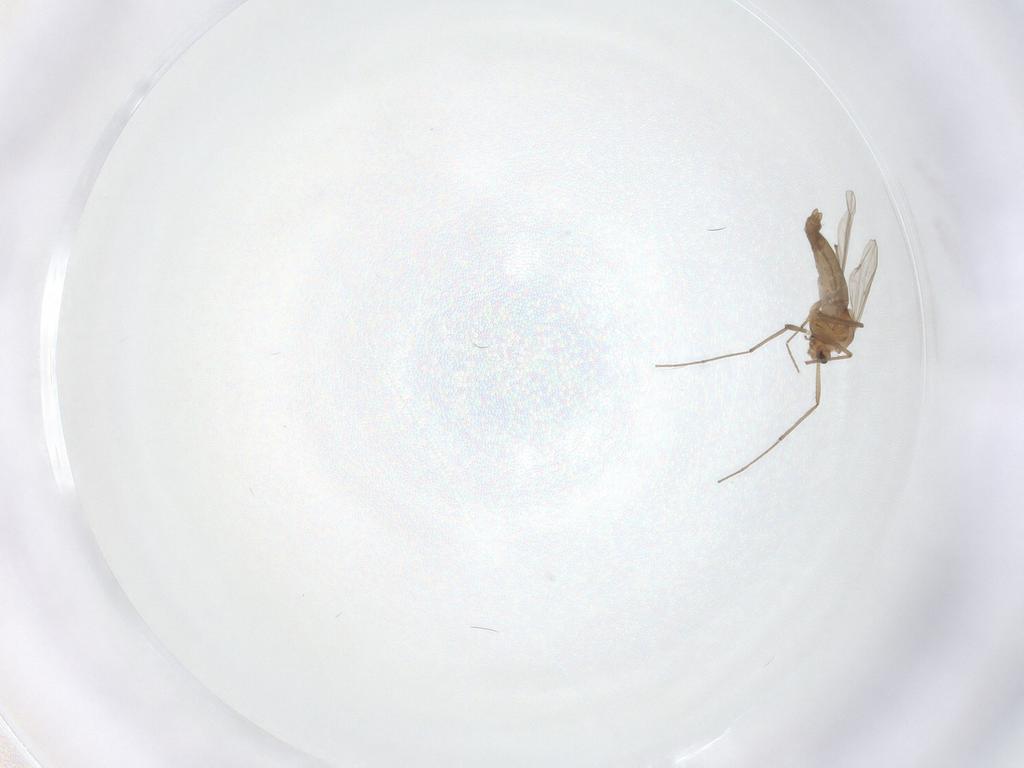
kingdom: Animalia
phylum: Arthropoda
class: Insecta
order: Diptera
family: Chironomidae
